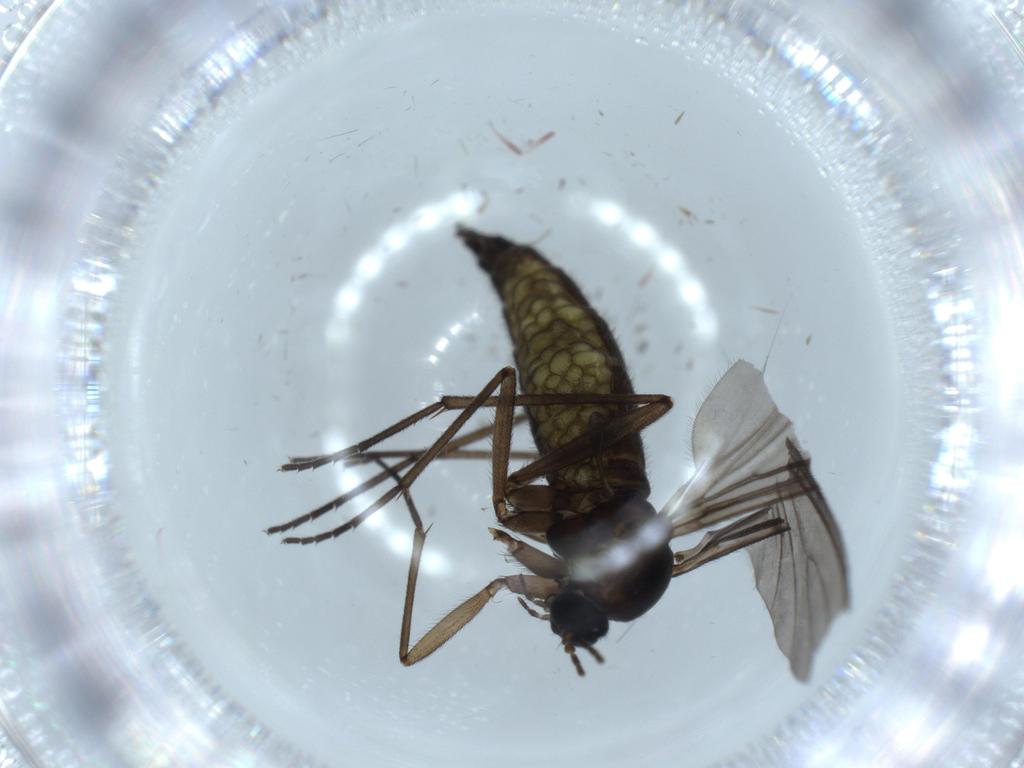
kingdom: Animalia
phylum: Arthropoda
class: Insecta
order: Diptera
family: Sciaridae
